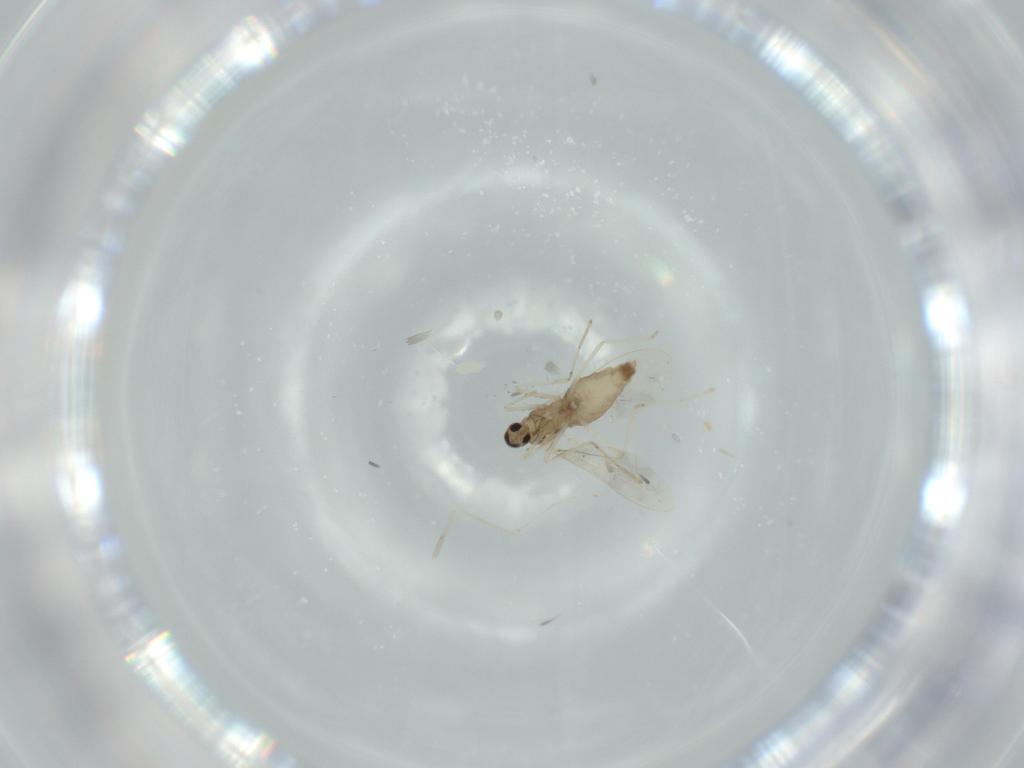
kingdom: Animalia
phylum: Arthropoda
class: Insecta
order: Diptera
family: Cecidomyiidae
